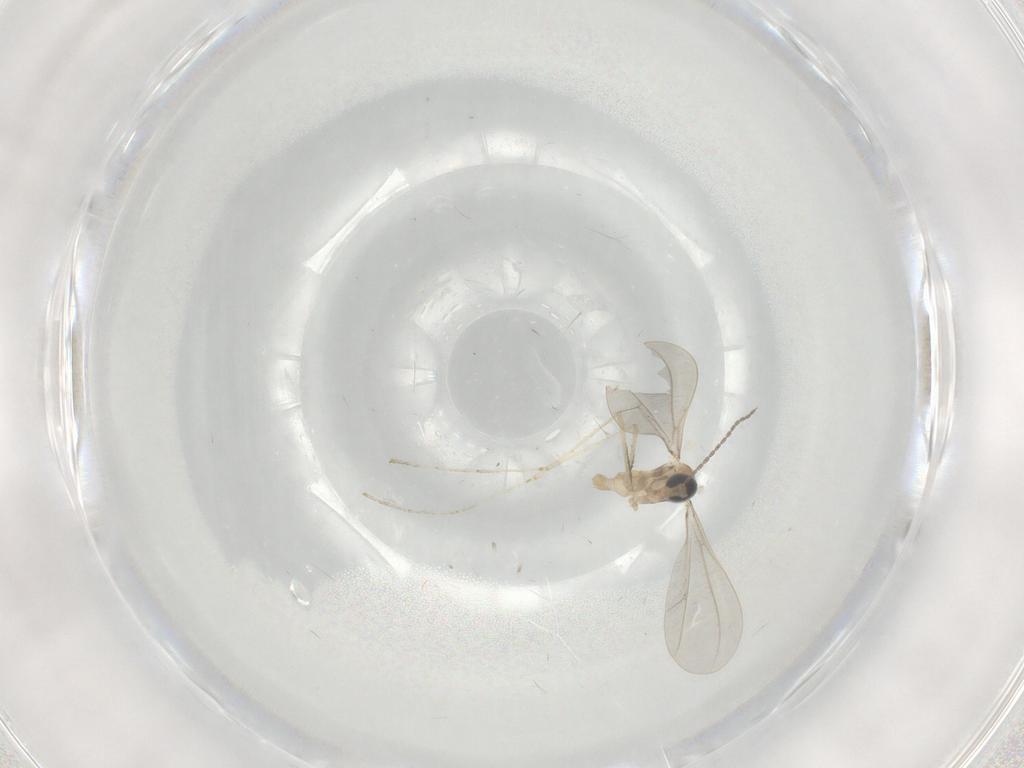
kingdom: Animalia
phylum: Arthropoda
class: Insecta
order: Diptera
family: Cecidomyiidae
